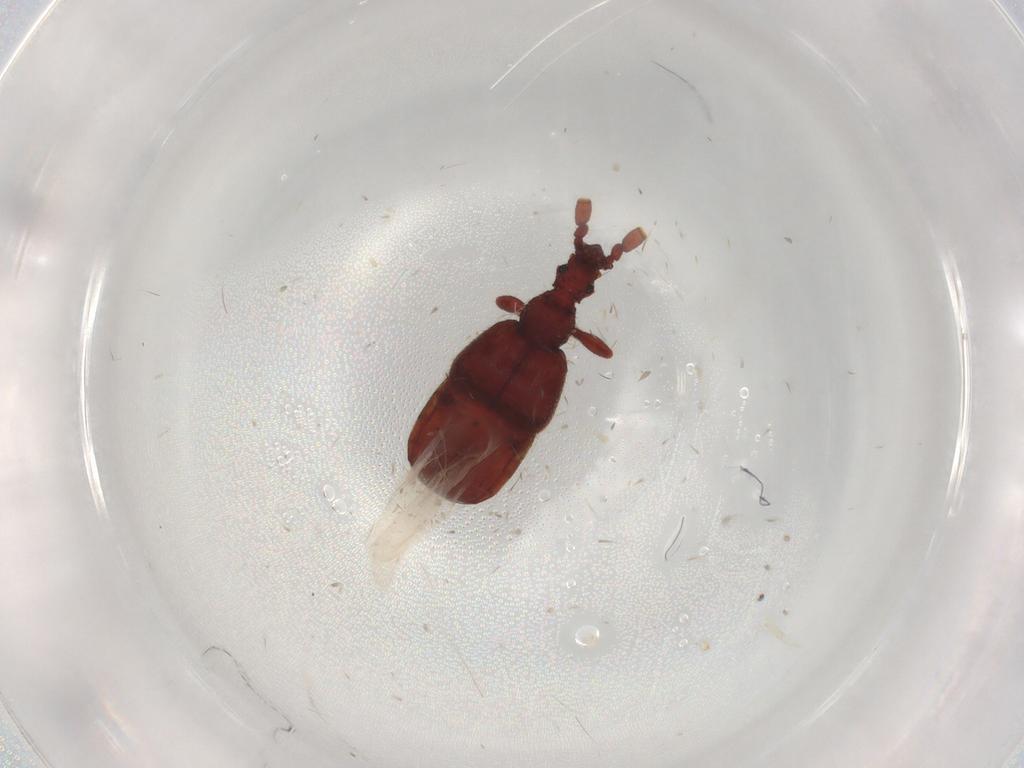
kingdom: Animalia
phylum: Arthropoda
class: Insecta
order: Coleoptera
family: Staphylinidae
